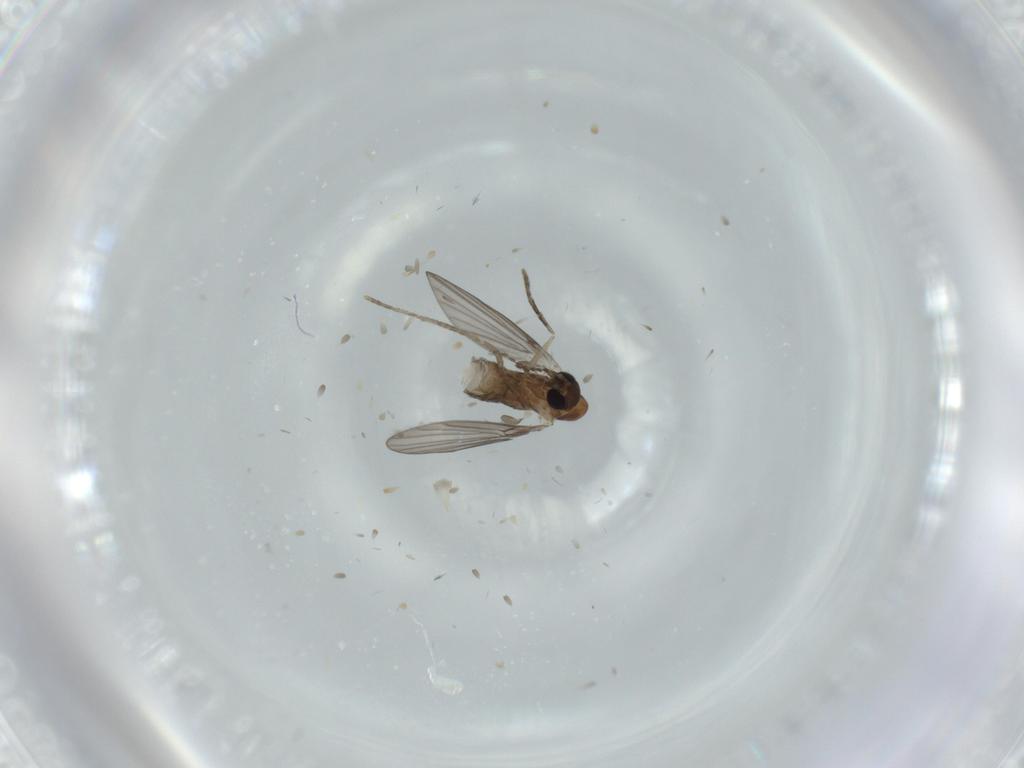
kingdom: Animalia
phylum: Arthropoda
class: Insecta
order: Diptera
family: Psychodidae
